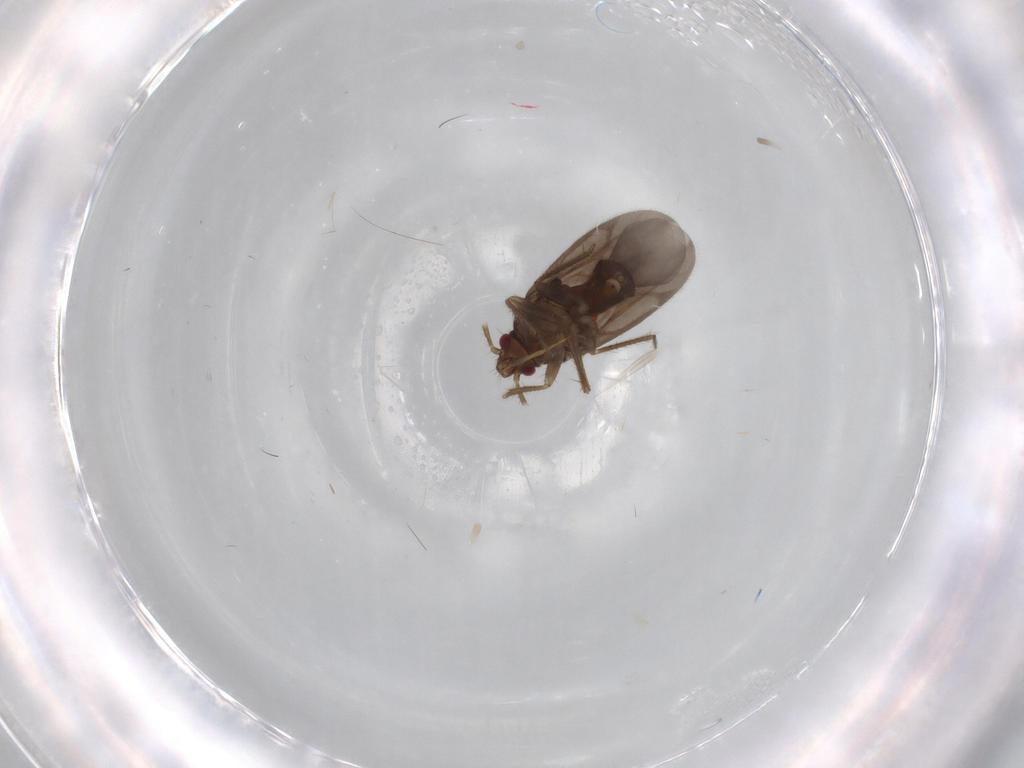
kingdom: Animalia
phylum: Arthropoda
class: Insecta
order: Hemiptera
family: Ceratocombidae
